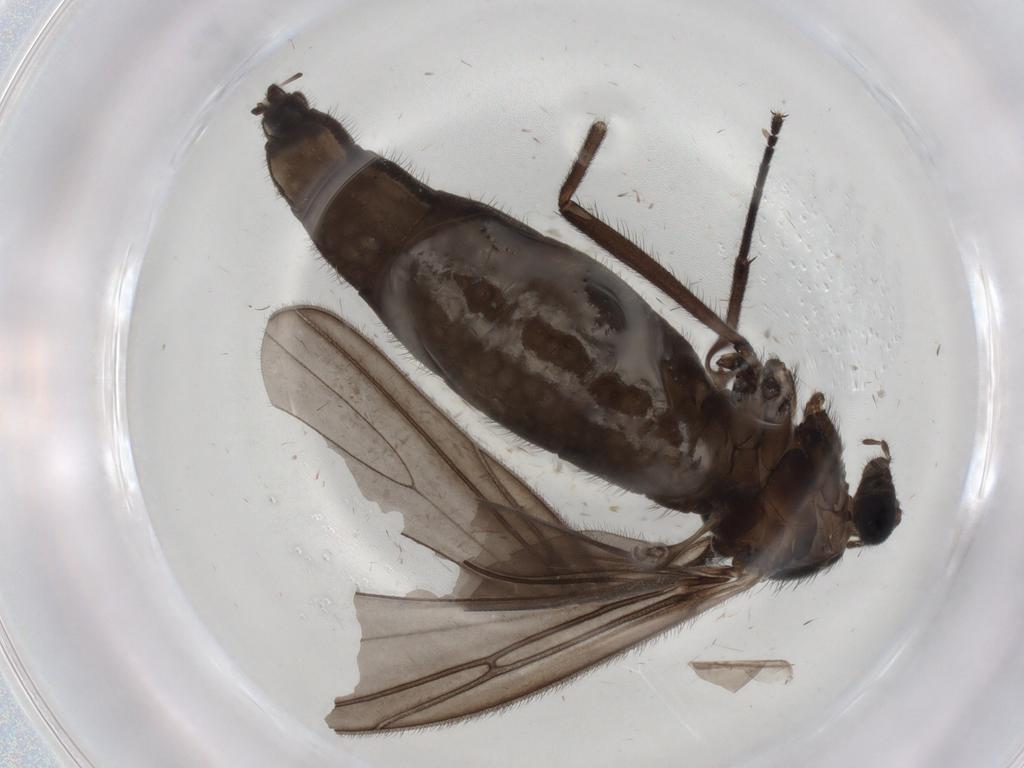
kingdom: Animalia
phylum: Arthropoda
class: Insecta
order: Diptera
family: Sciaridae
